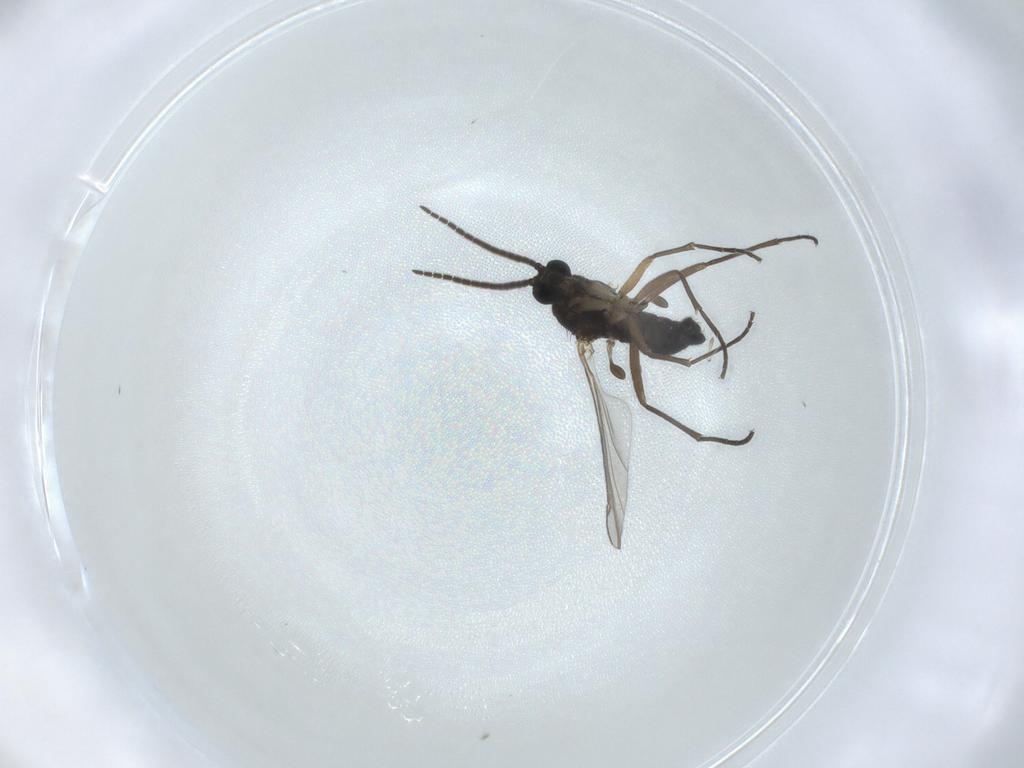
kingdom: Animalia
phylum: Arthropoda
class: Insecta
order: Diptera
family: Sciaridae
